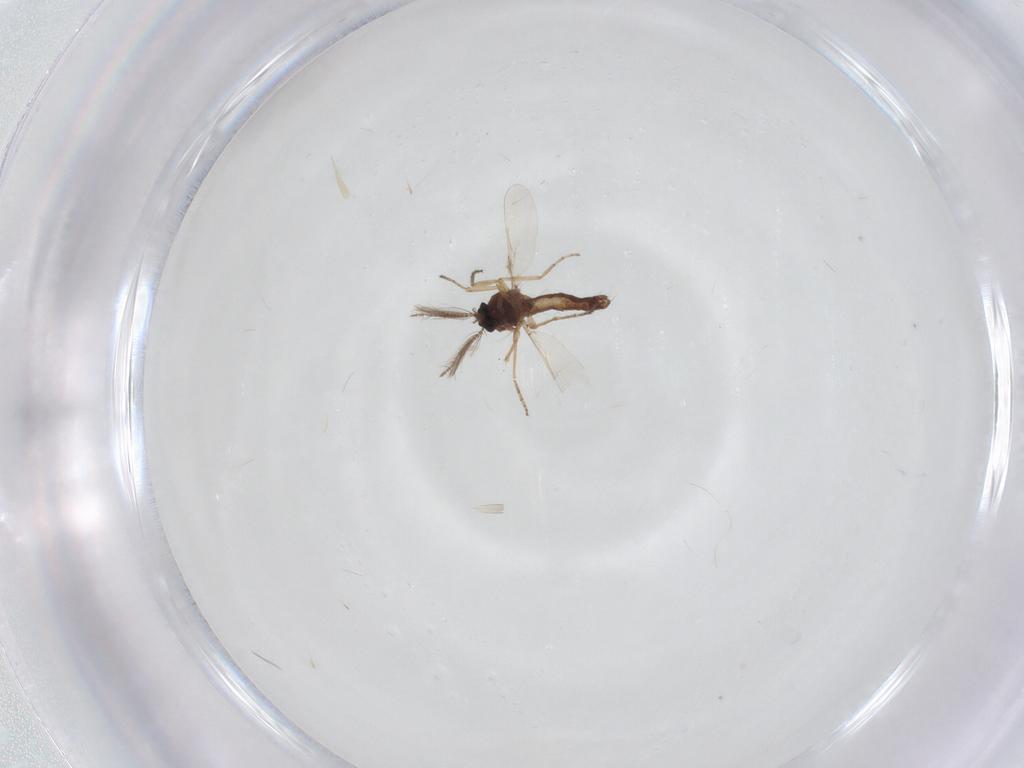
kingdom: Animalia
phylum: Arthropoda
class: Insecta
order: Diptera
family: Ceratopogonidae
